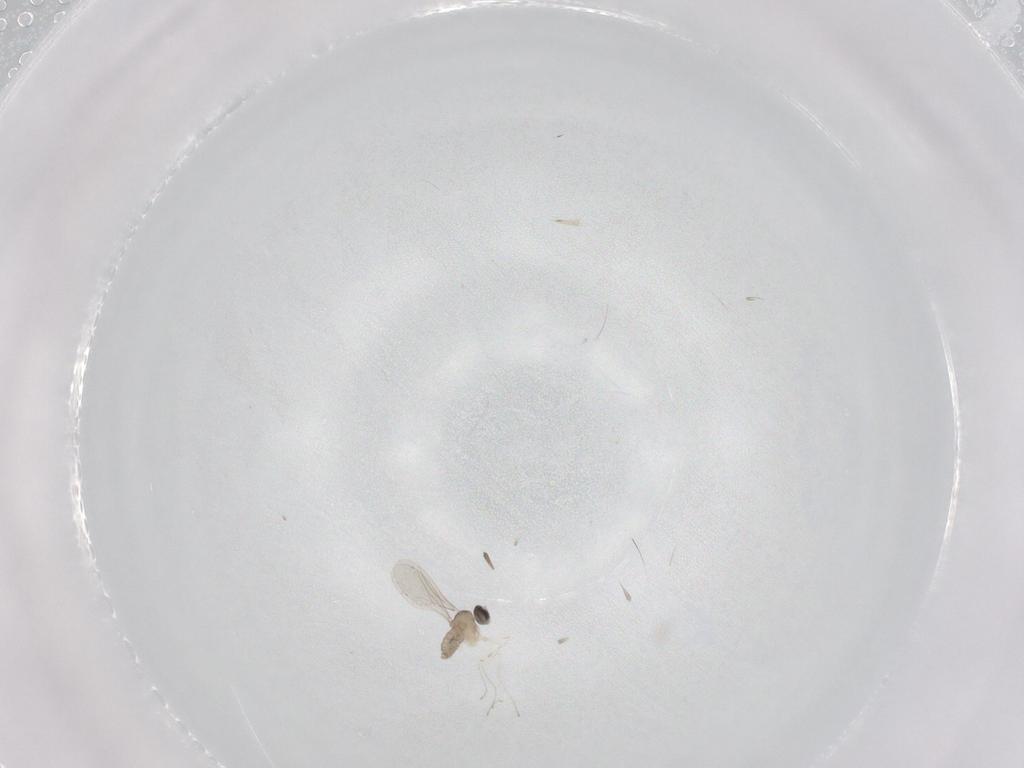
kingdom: Animalia
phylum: Arthropoda
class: Insecta
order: Diptera
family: Cecidomyiidae
